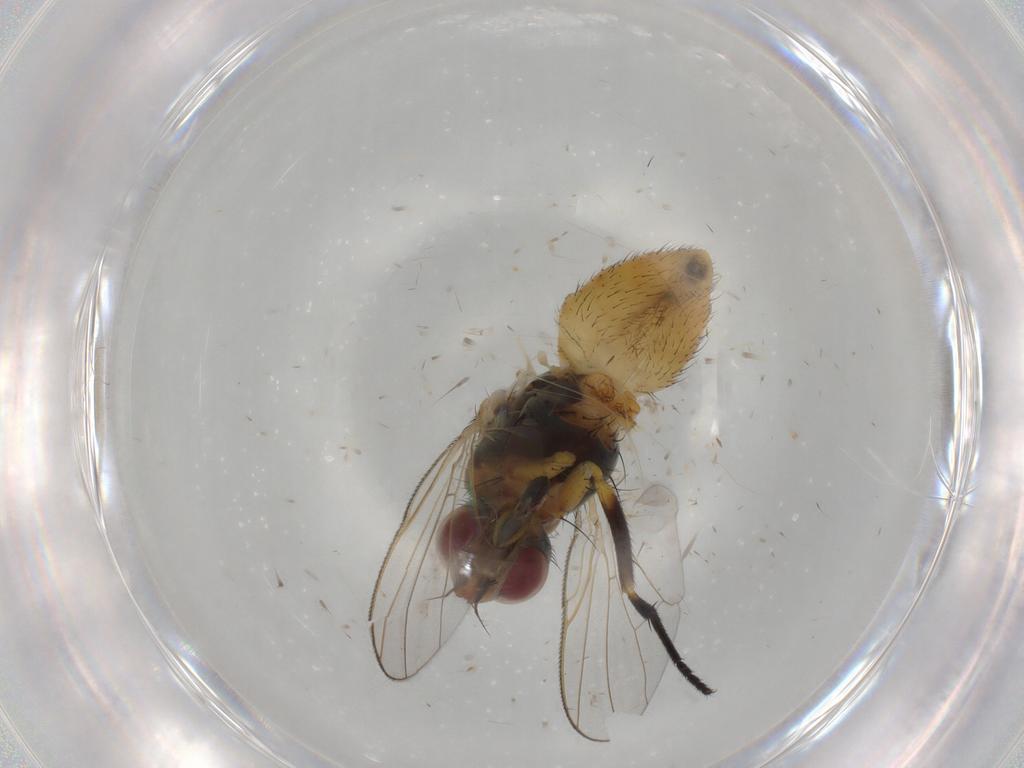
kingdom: Animalia
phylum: Arthropoda
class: Insecta
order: Diptera
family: Muscidae
